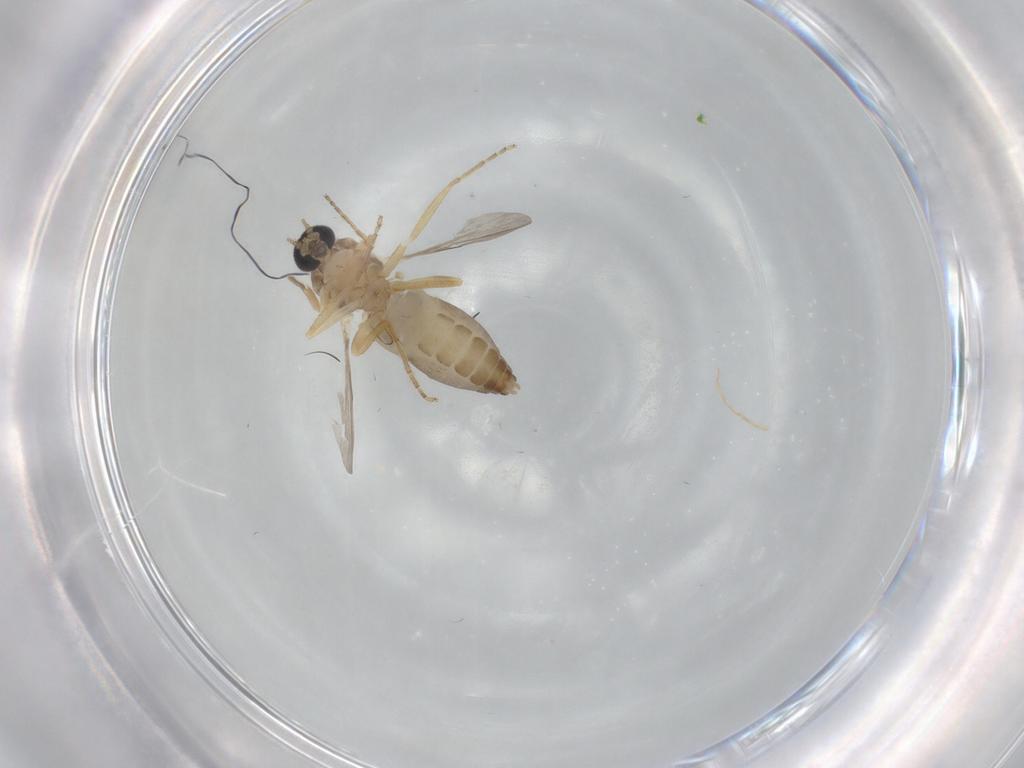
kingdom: Animalia
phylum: Arthropoda
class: Insecta
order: Diptera
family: Ceratopogonidae
